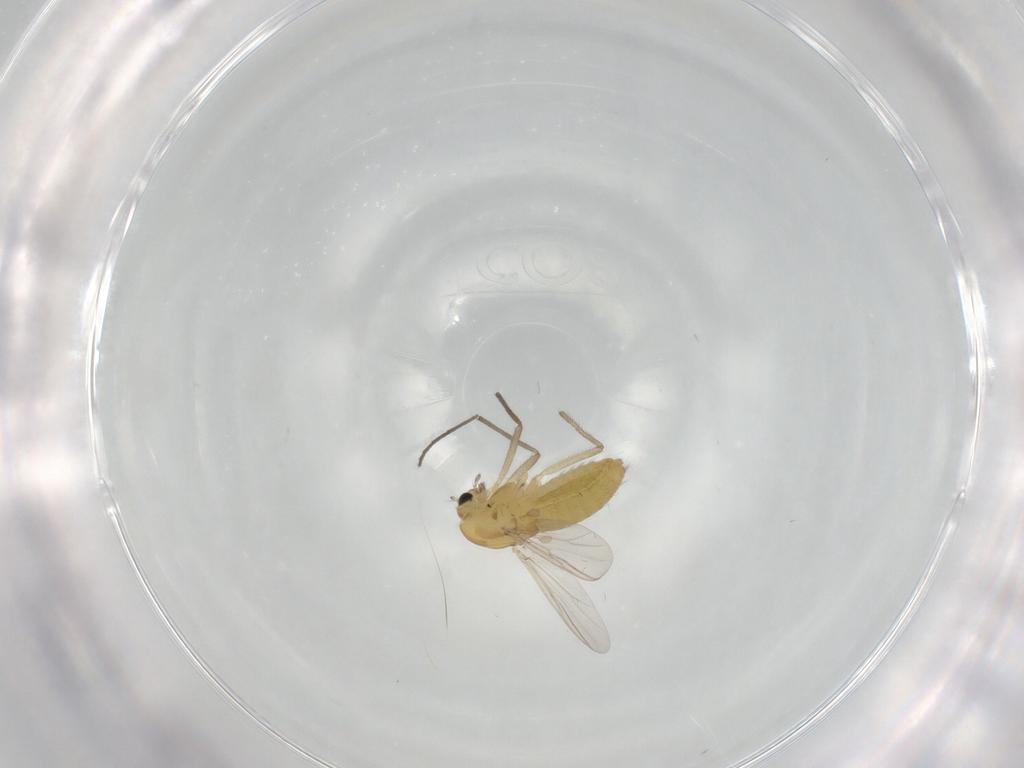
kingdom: Animalia
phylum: Arthropoda
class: Insecta
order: Diptera
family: Chironomidae
